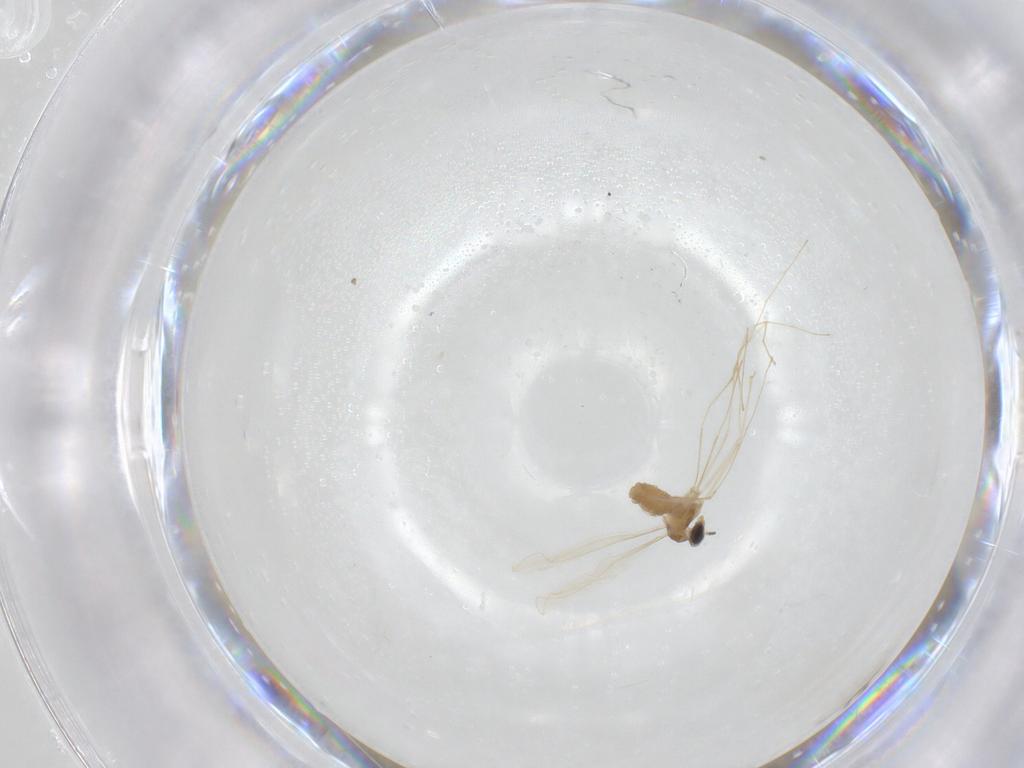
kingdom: Animalia
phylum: Arthropoda
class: Insecta
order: Diptera
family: Cecidomyiidae
